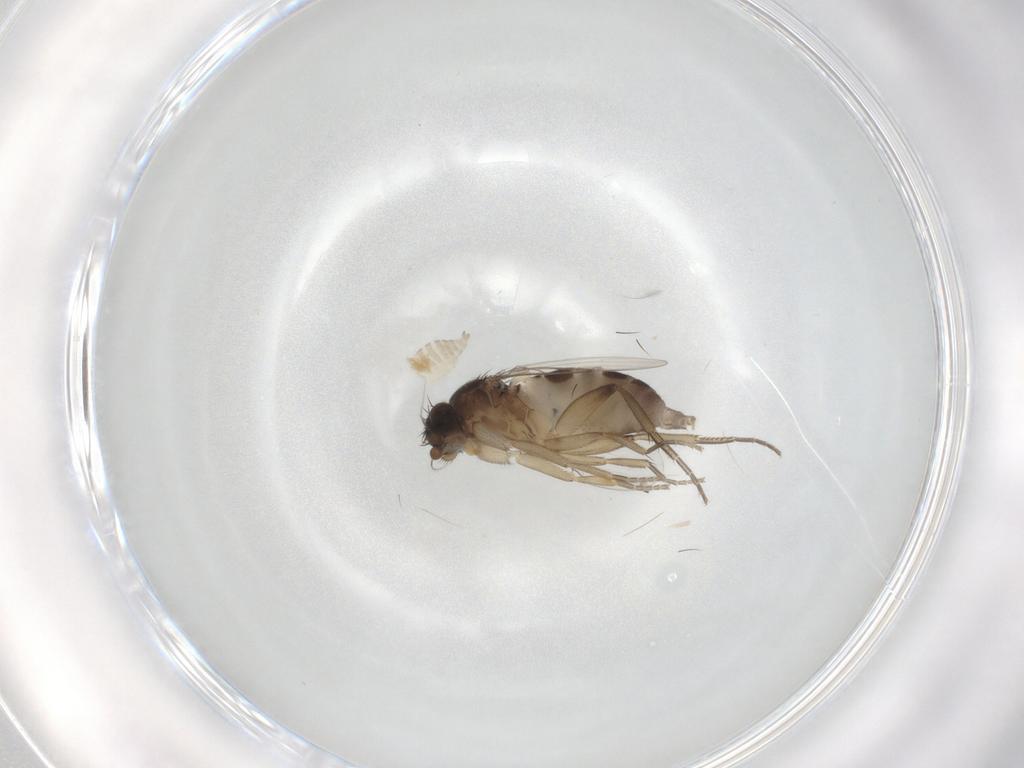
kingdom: Animalia
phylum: Arthropoda
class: Insecta
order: Diptera
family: Phoridae
